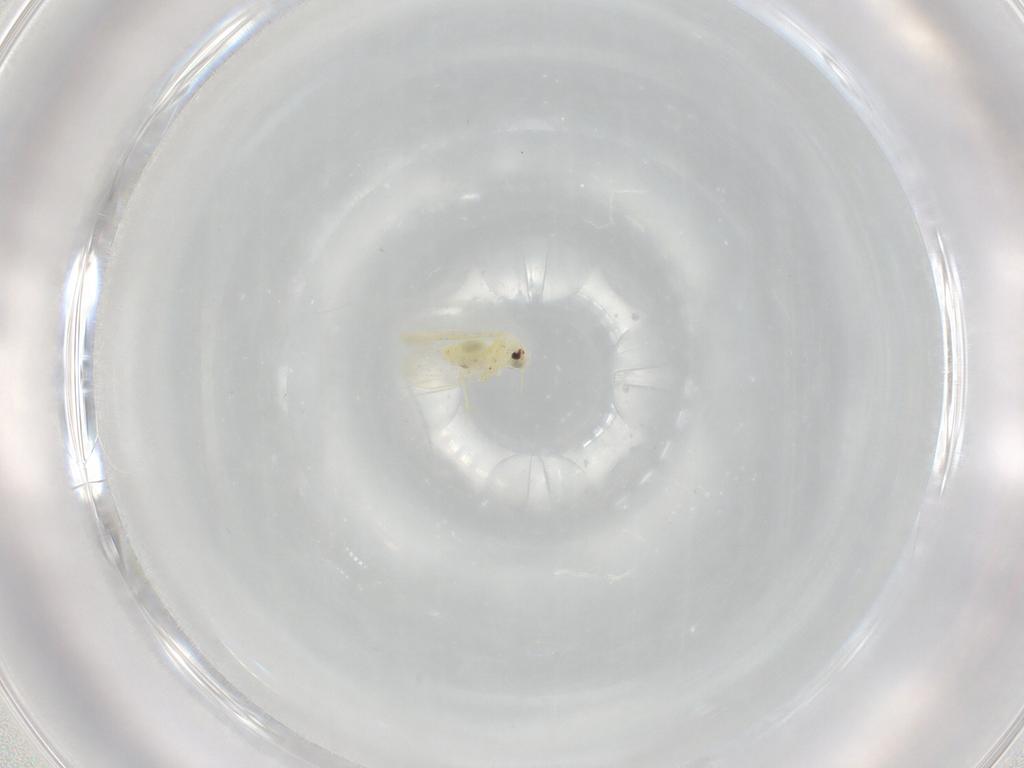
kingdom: Animalia
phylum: Arthropoda
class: Insecta
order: Hemiptera
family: Aleyrodidae
